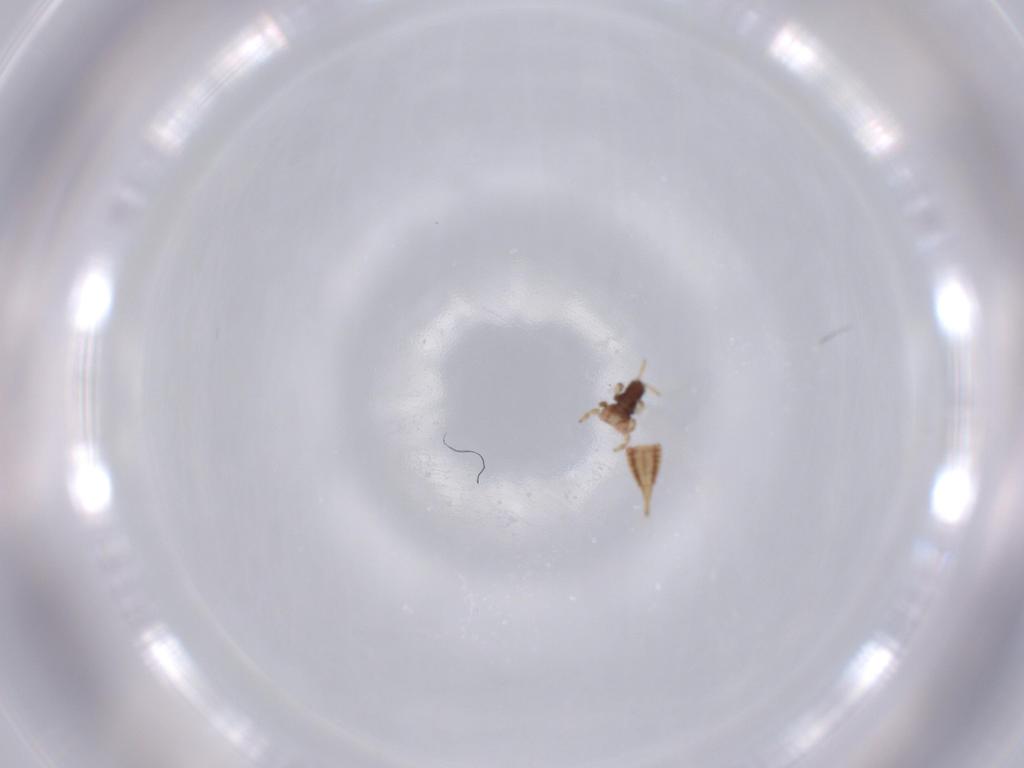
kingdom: Animalia
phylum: Arthropoda
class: Insecta
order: Thysanoptera
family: Phlaeothripidae
